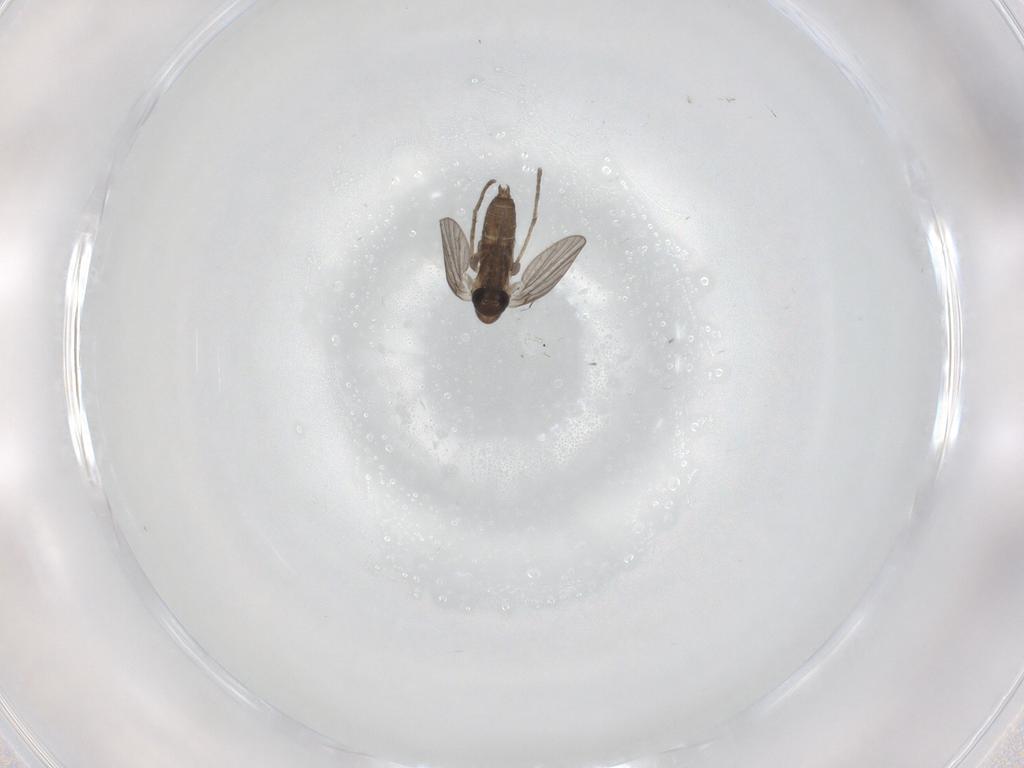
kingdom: Animalia
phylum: Arthropoda
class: Insecta
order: Diptera
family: Keroplatidae
